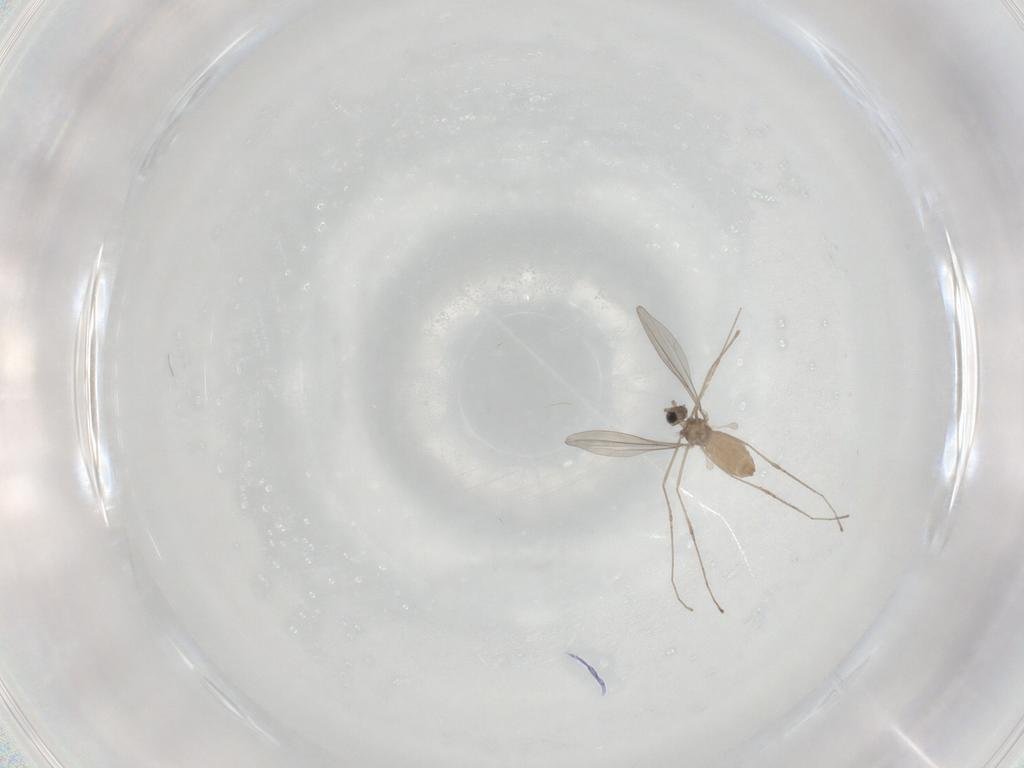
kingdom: Animalia
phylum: Arthropoda
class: Insecta
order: Diptera
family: Cecidomyiidae
